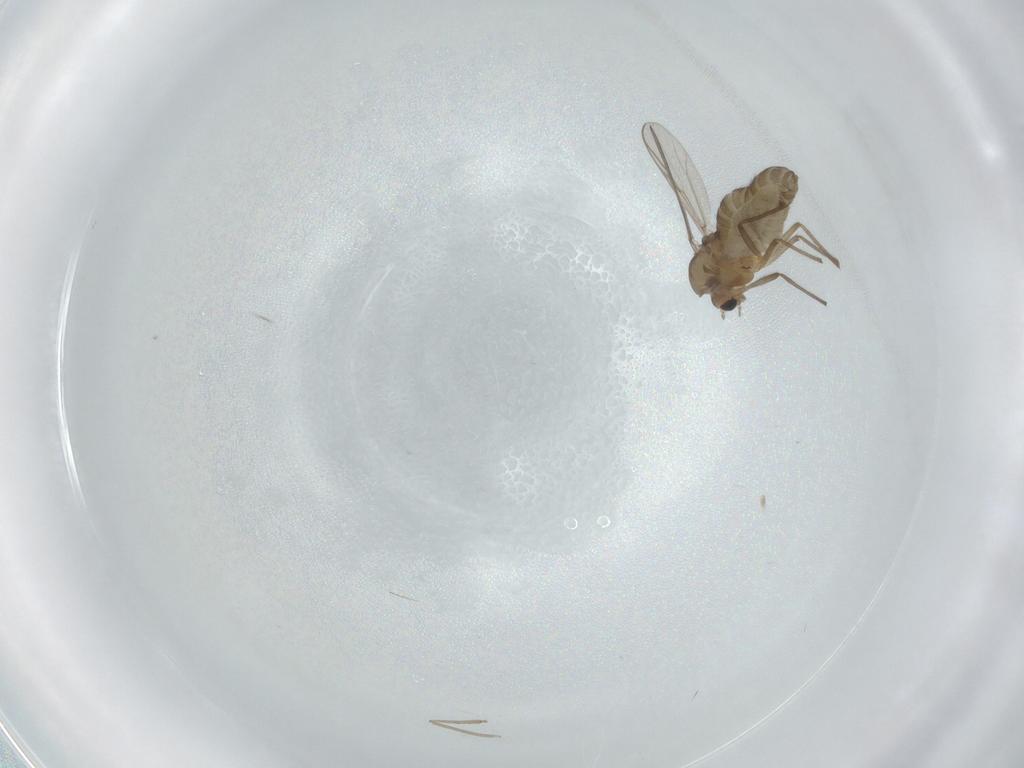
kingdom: Animalia
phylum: Arthropoda
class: Insecta
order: Diptera
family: Chironomidae
